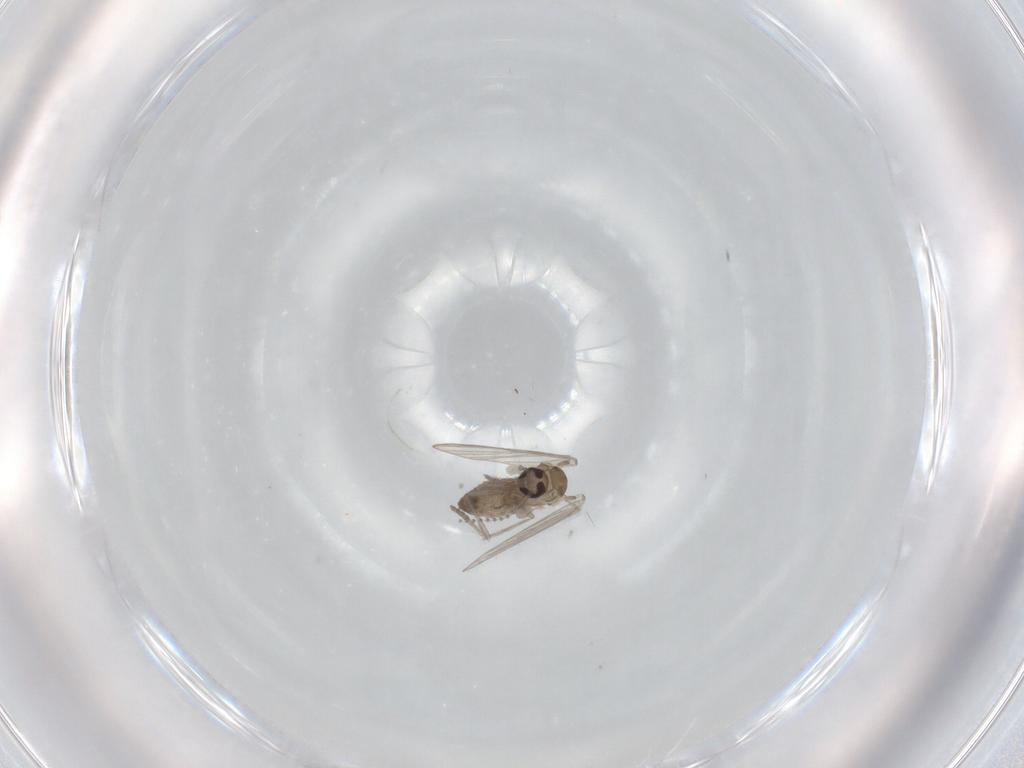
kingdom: Animalia
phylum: Arthropoda
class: Insecta
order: Diptera
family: Psychodidae
